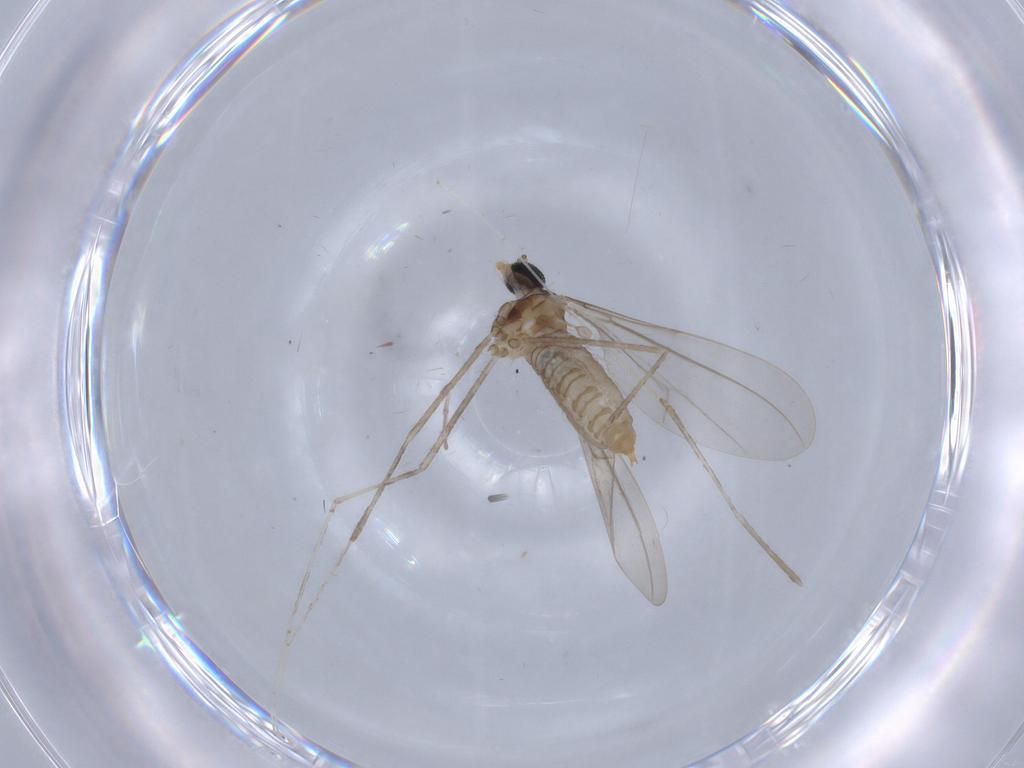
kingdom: Animalia
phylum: Arthropoda
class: Insecta
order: Diptera
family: Cecidomyiidae
